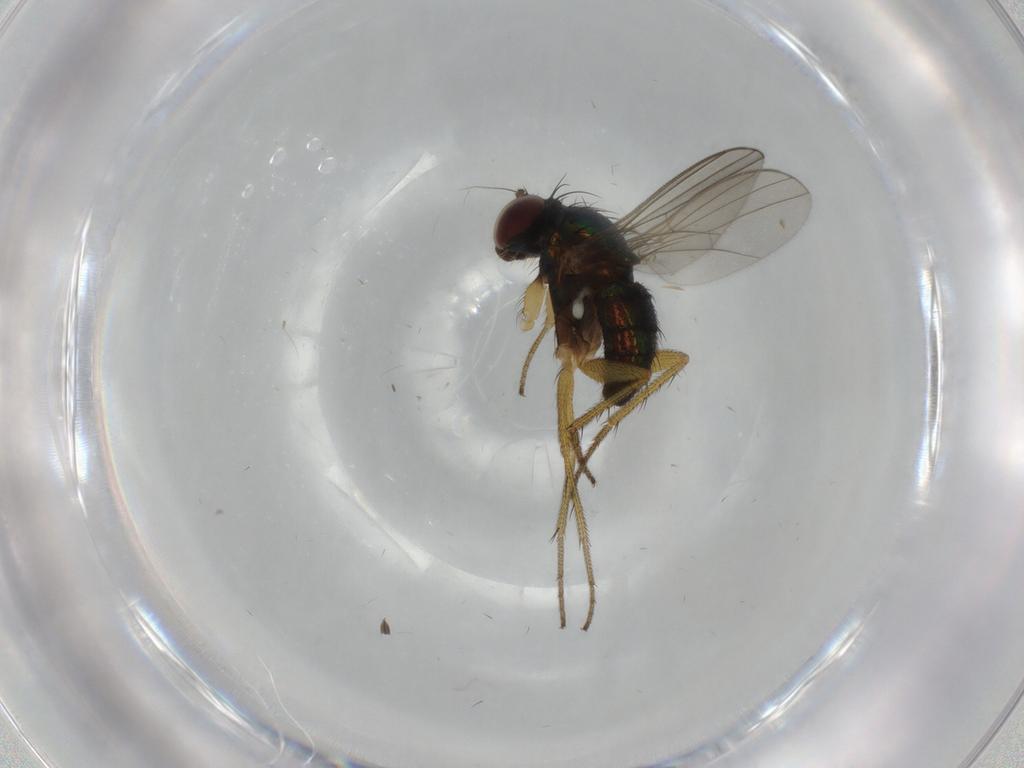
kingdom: Animalia
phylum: Arthropoda
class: Insecta
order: Diptera
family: Dolichopodidae
